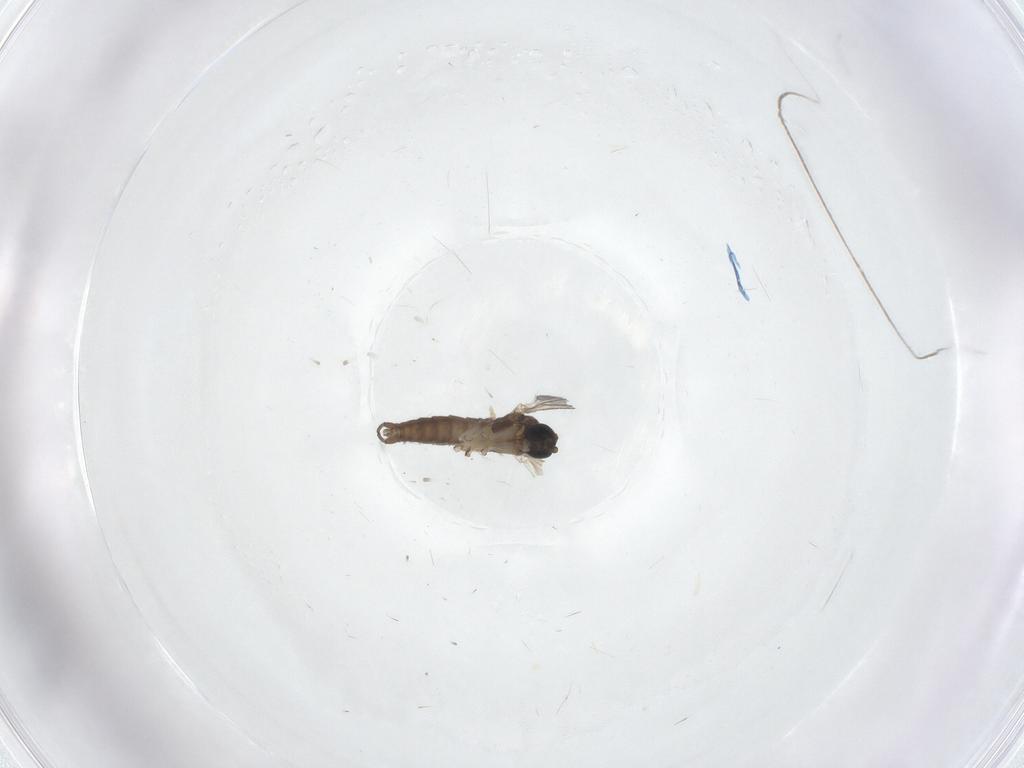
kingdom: Animalia
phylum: Arthropoda
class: Insecta
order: Diptera
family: Sciaridae
